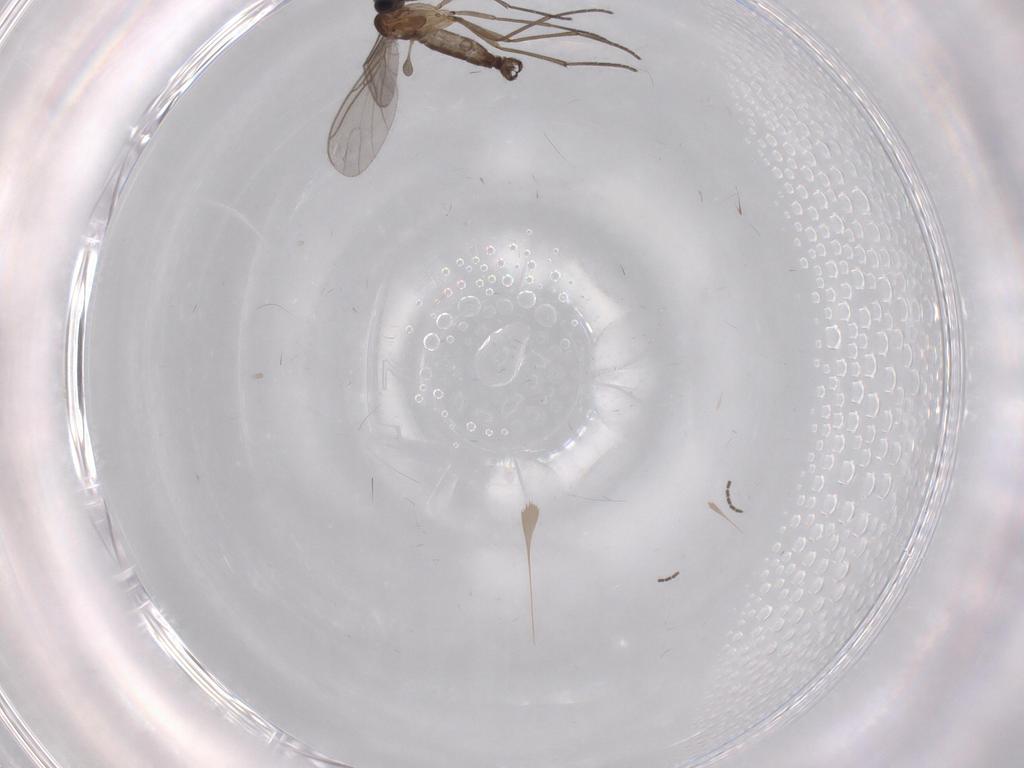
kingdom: Animalia
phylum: Arthropoda
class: Insecta
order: Diptera
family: Sciaridae
